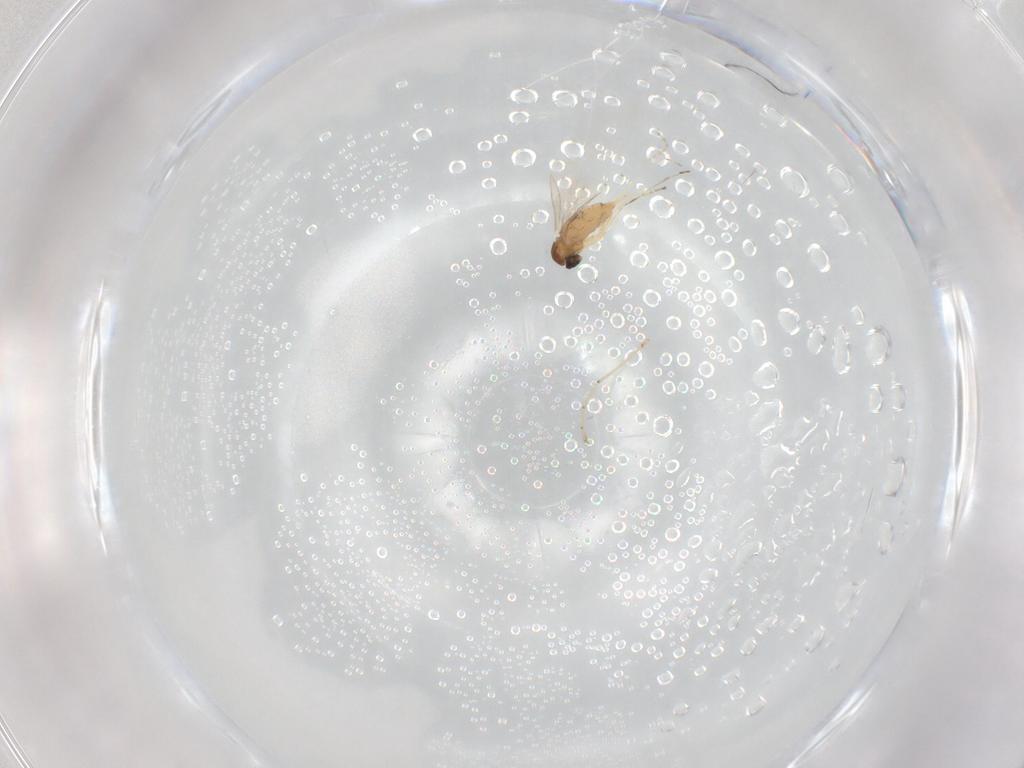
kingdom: Animalia
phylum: Arthropoda
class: Insecta
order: Diptera
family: Cecidomyiidae
